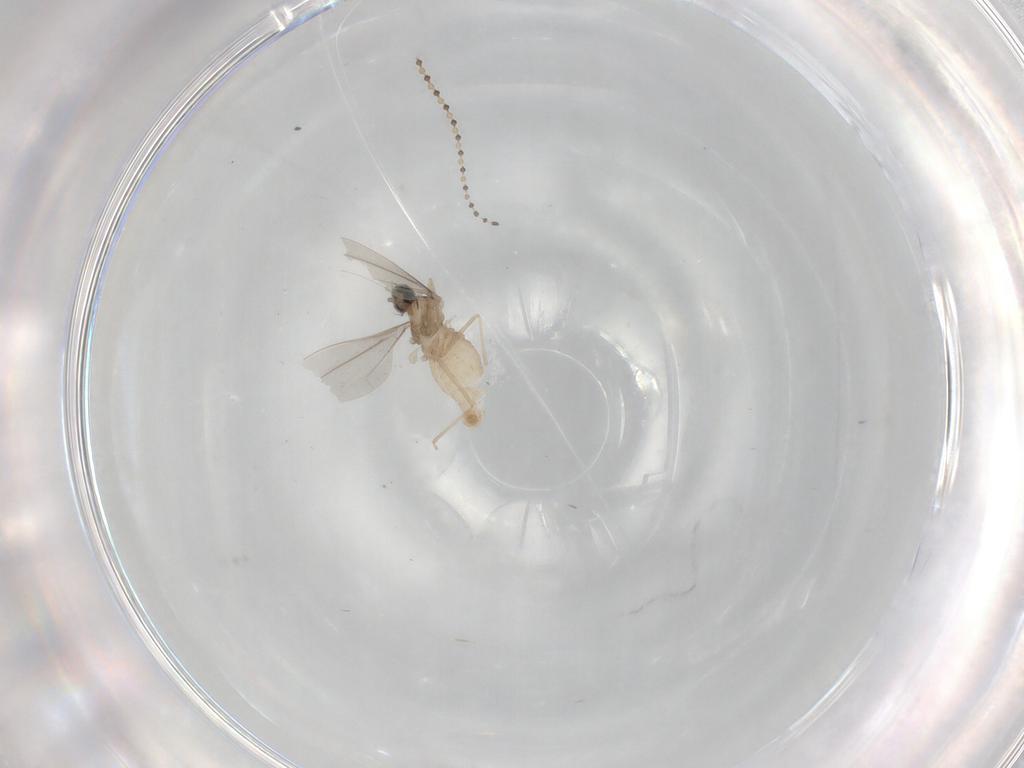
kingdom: Animalia
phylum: Arthropoda
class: Insecta
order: Diptera
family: Cecidomyiidae
